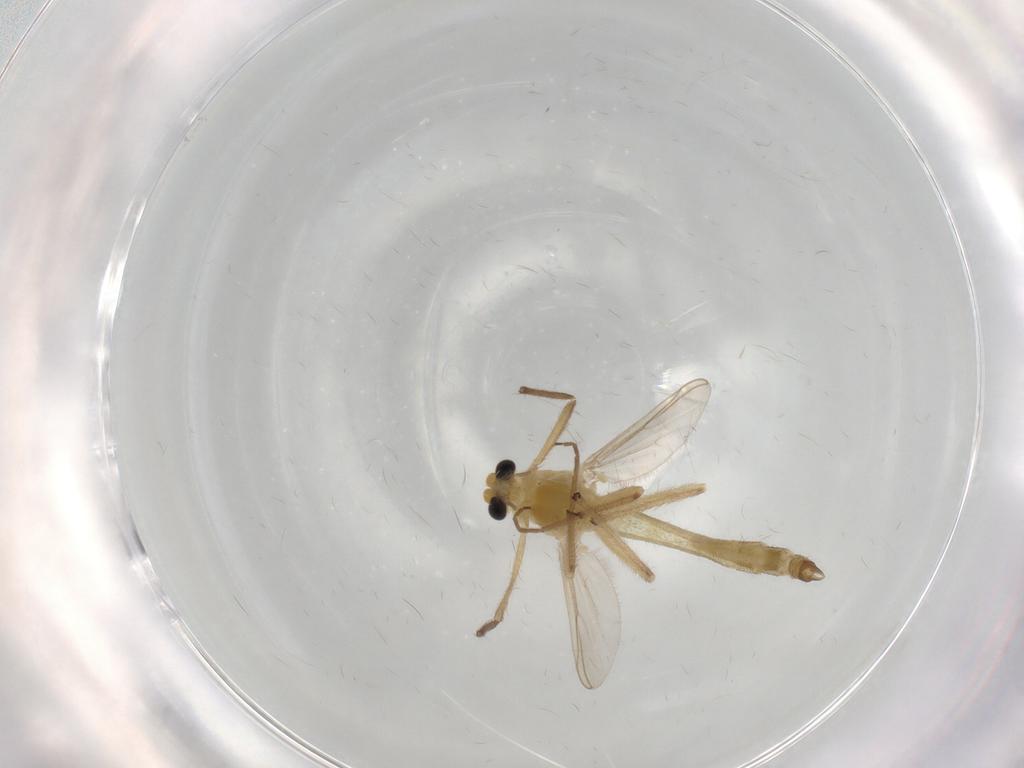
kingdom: Animalia
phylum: Arthropoda
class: Insecta
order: Diptera
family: Chironomidae
